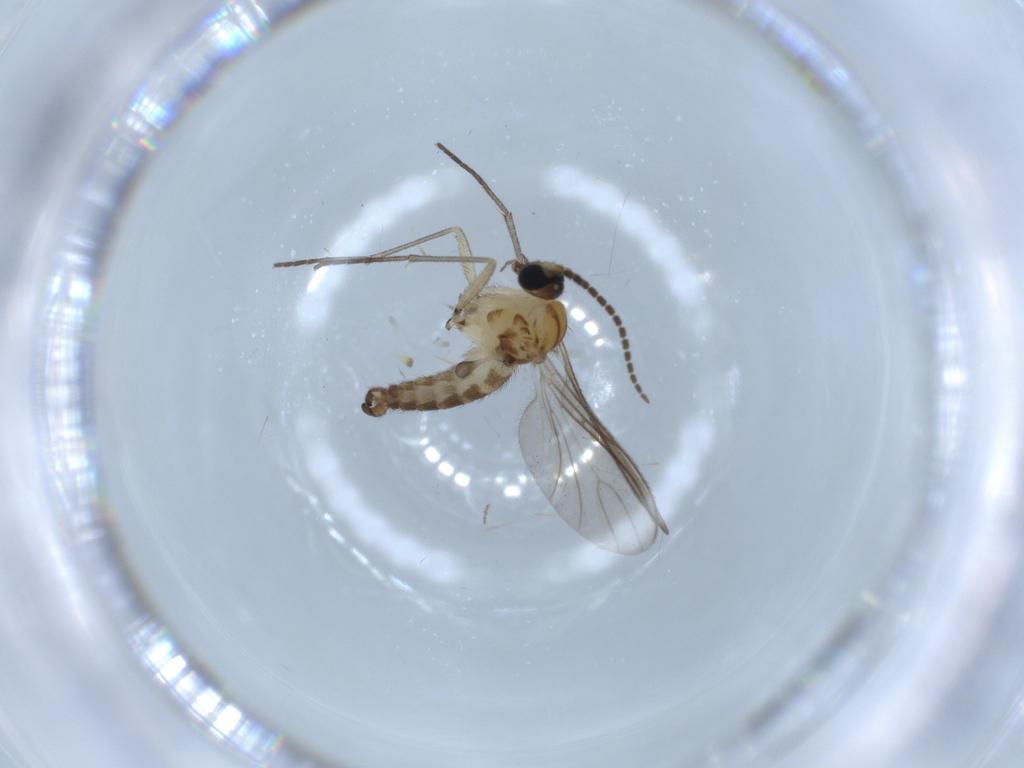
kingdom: Animalia
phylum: Arthropoda
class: Insecta
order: Diptera
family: Sciaridae
